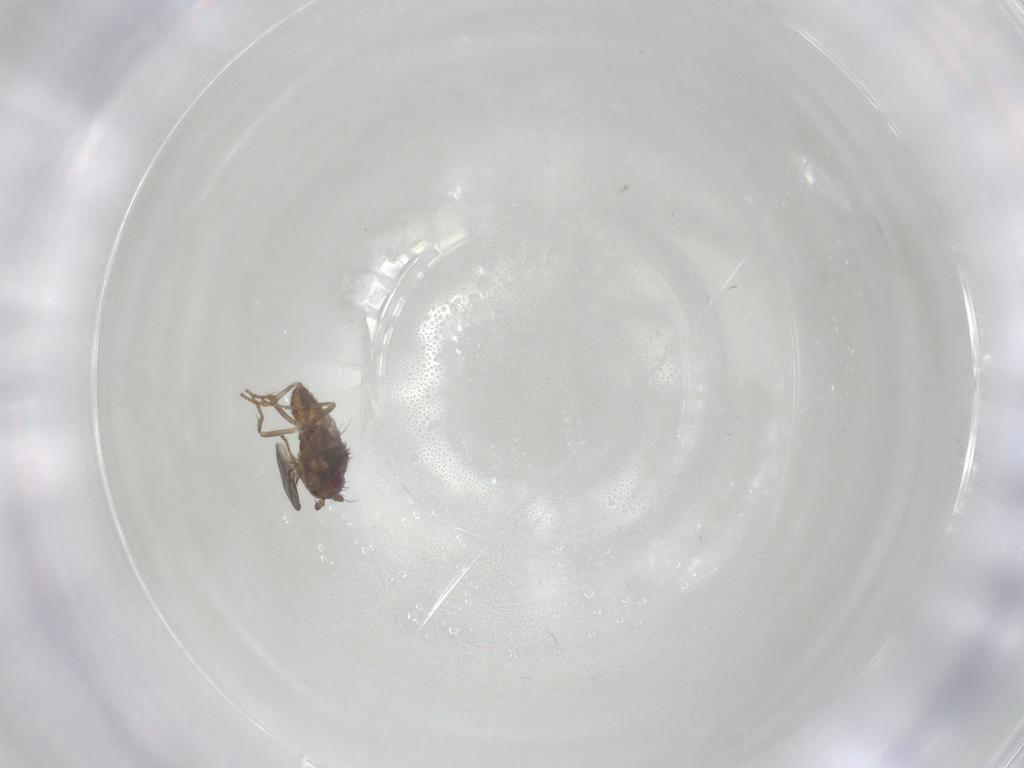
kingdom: Animalia
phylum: Arthropoda
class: Insecta
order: Diptera
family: Sphaeroceridae
